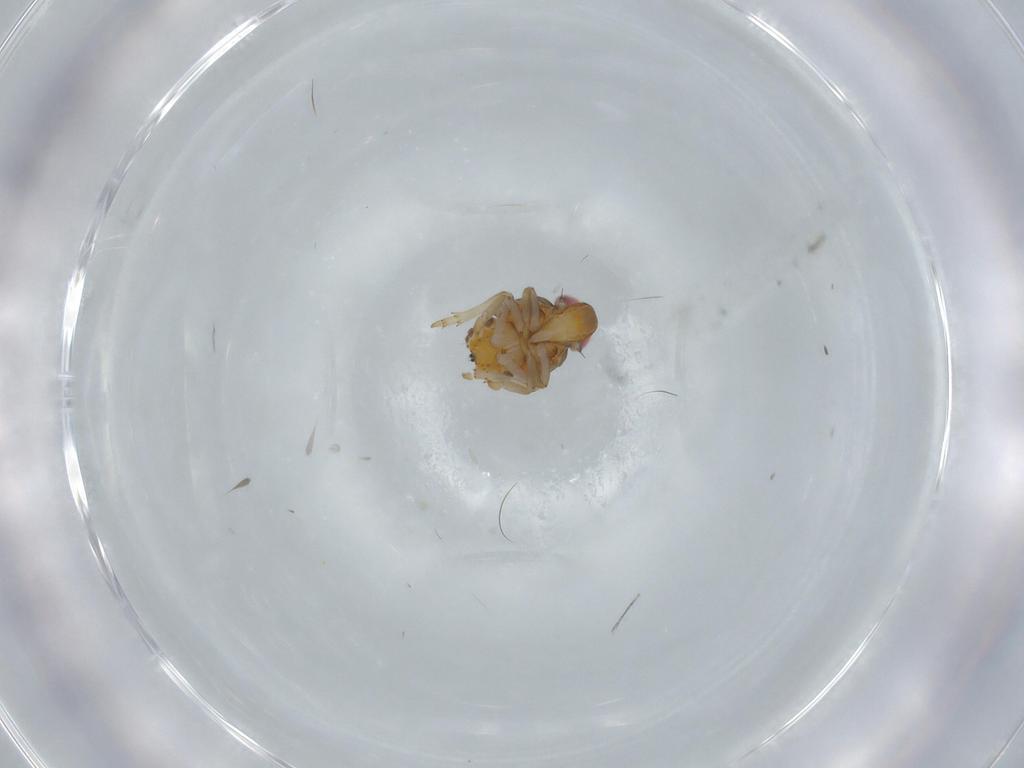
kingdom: Animalia
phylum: Arthropoda
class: Insecta
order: Hemiptera
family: Issidae
